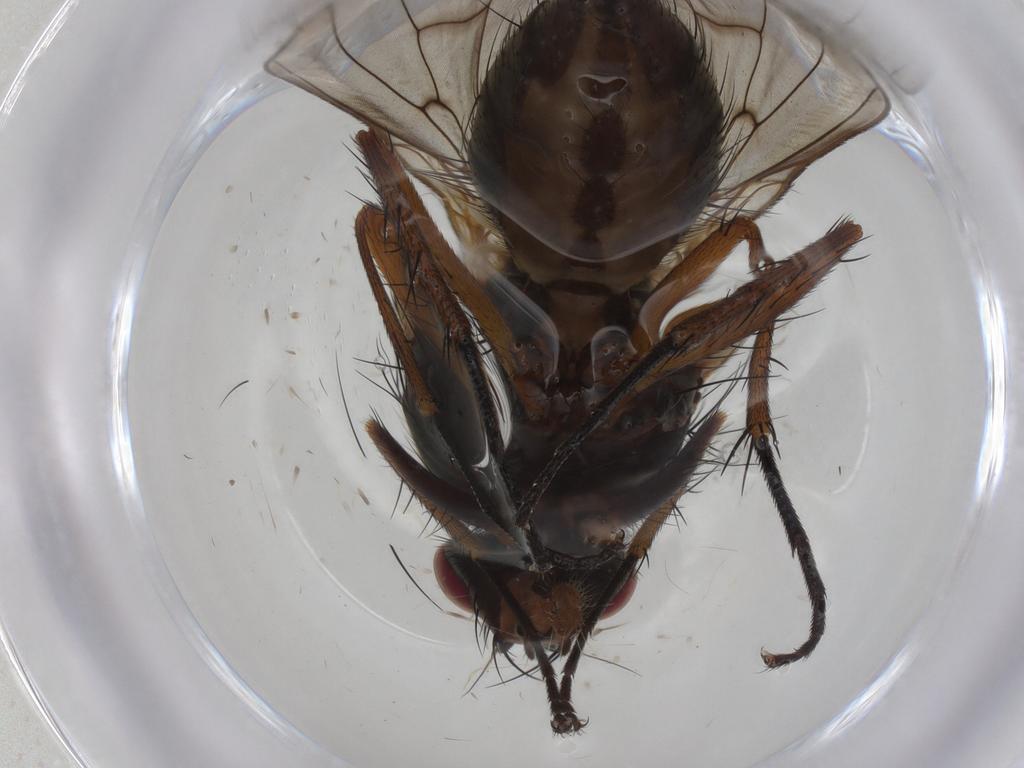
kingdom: Animalia
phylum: Arthropoda
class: Insecta
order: Diptera
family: Anthomyiidae
